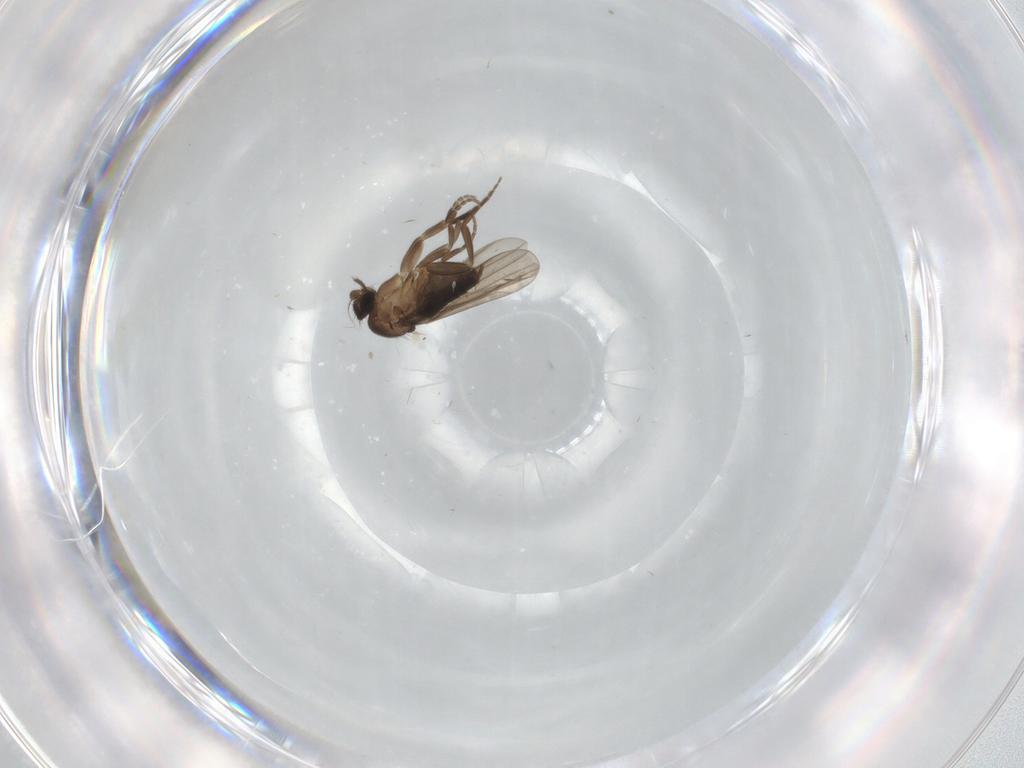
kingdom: Animalia
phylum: Arthropoda
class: Insecta
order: Diptera
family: Phoridae
